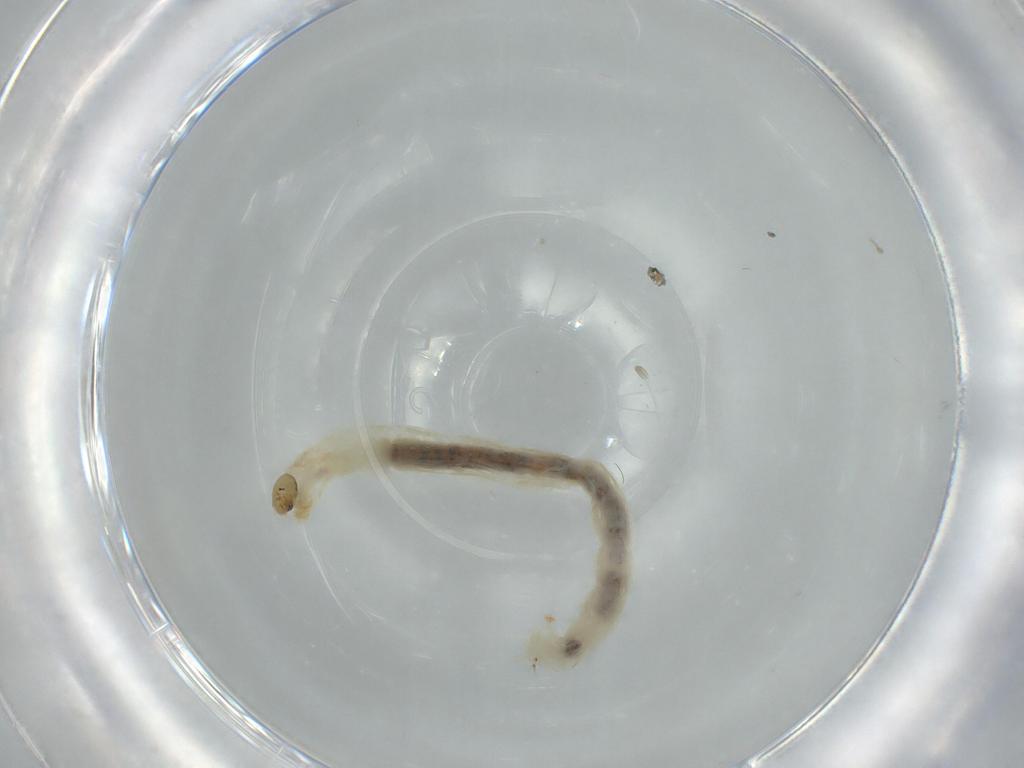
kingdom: Animalia
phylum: Arthropoda
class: Insecta
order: Diptera
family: Chironomidae
